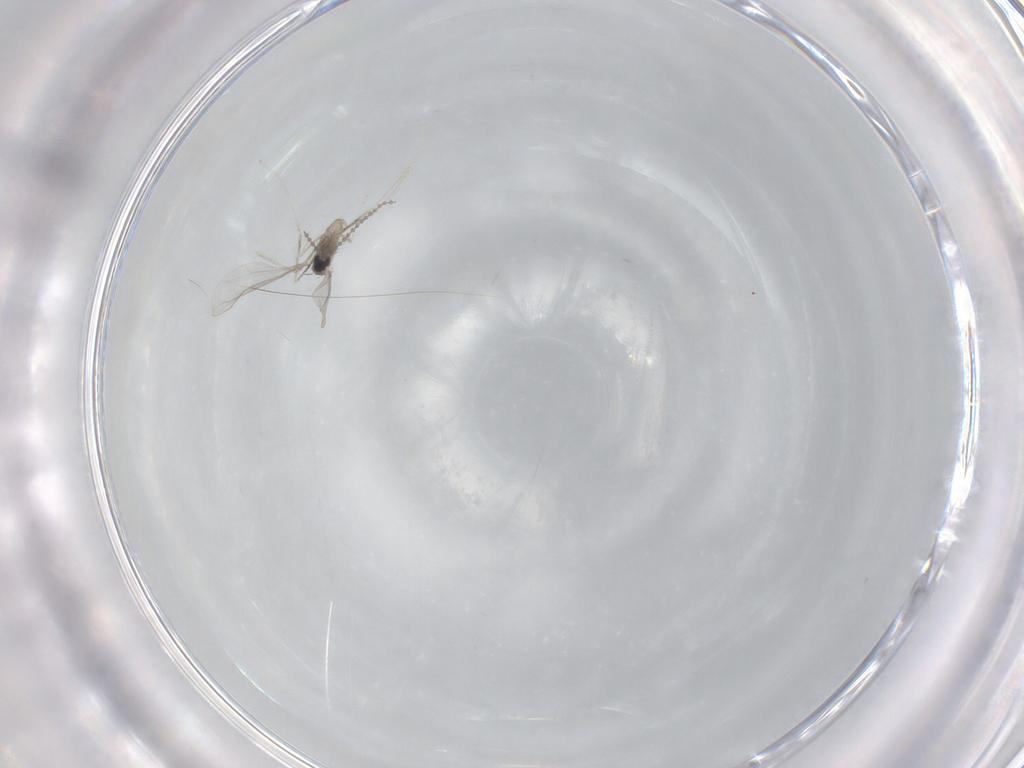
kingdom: Animalia
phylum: Arthropoda
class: Insecta
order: Diptera
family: Cecidomyiidae
